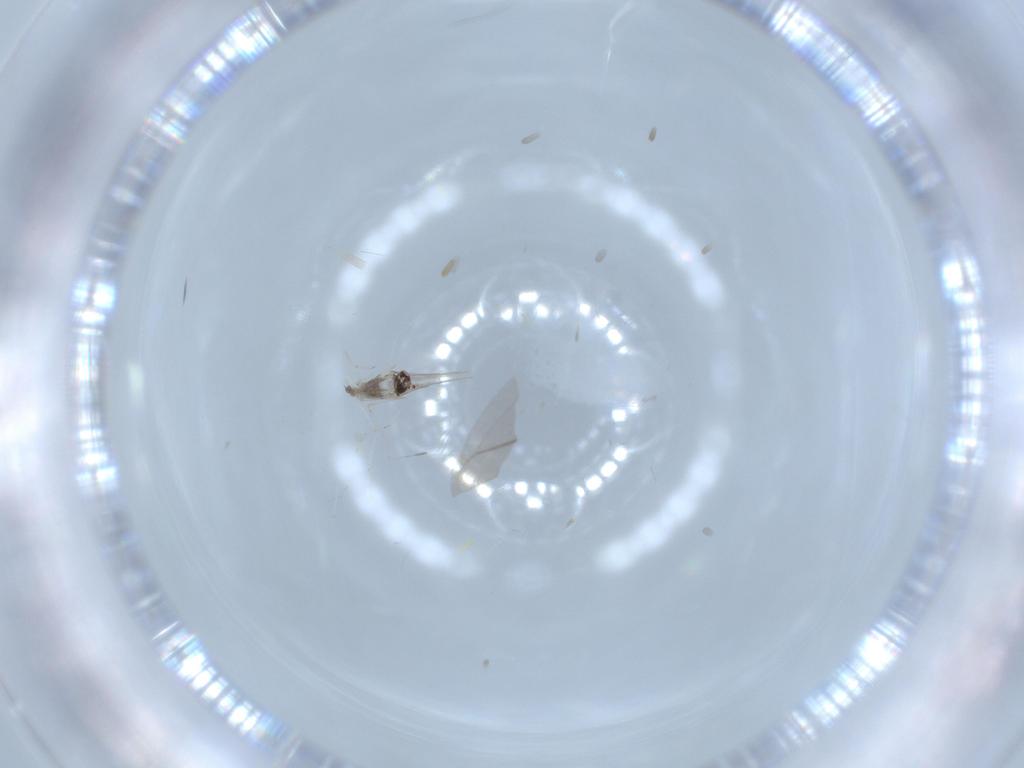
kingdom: Animalia
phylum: Arthropoda
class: Insecta
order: Diptera
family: Cecidomyiidae
